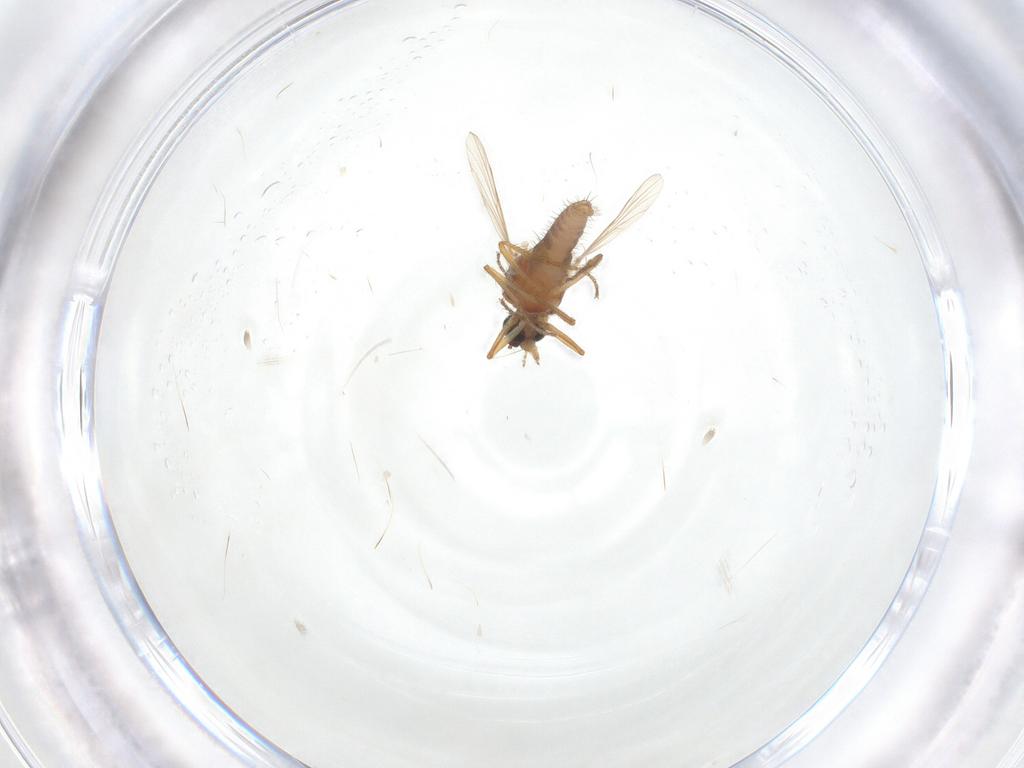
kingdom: Animalia
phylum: Arthropoda
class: Insecta
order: Diptera
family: Ceratopogonidae
